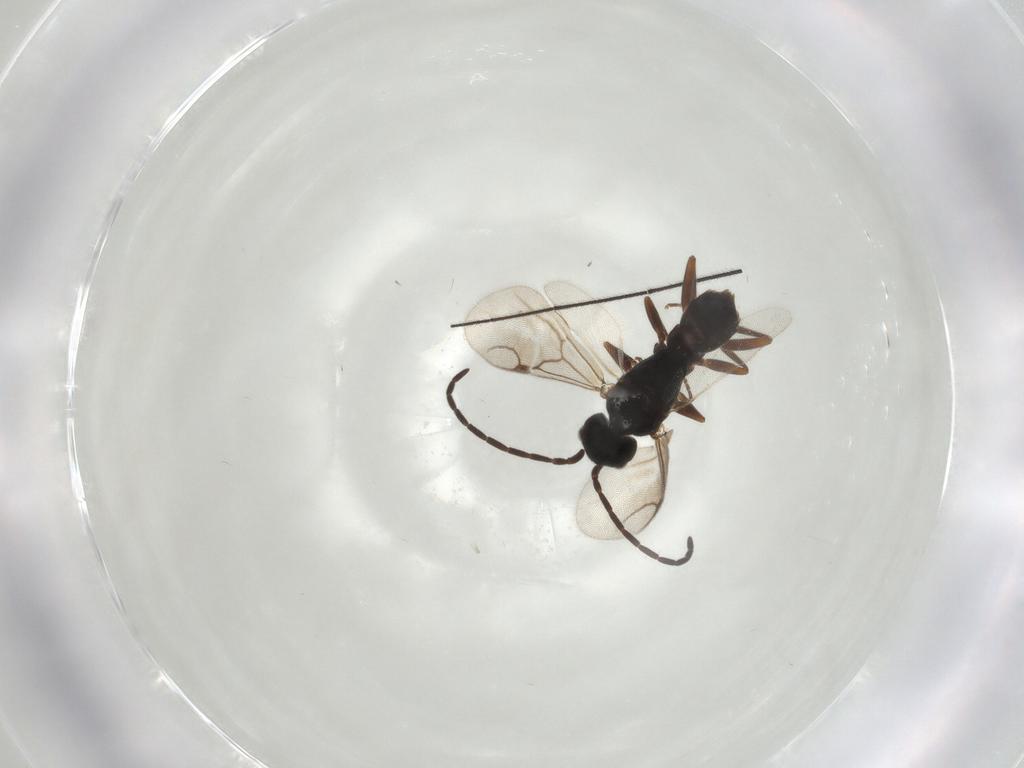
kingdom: Animalia
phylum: Arthropoda
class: Insecta
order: Hymenoptera
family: Dryinidae
